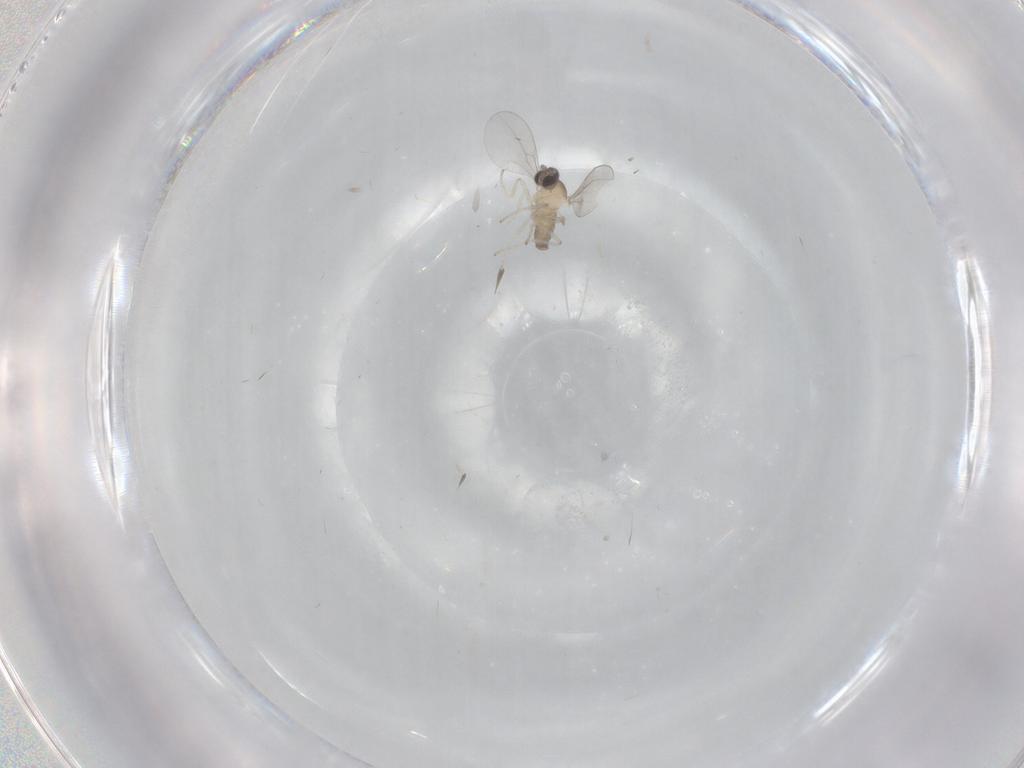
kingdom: Animalia
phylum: Arthropoda
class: Insecta
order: Diptera
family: Cecidomyiidae
